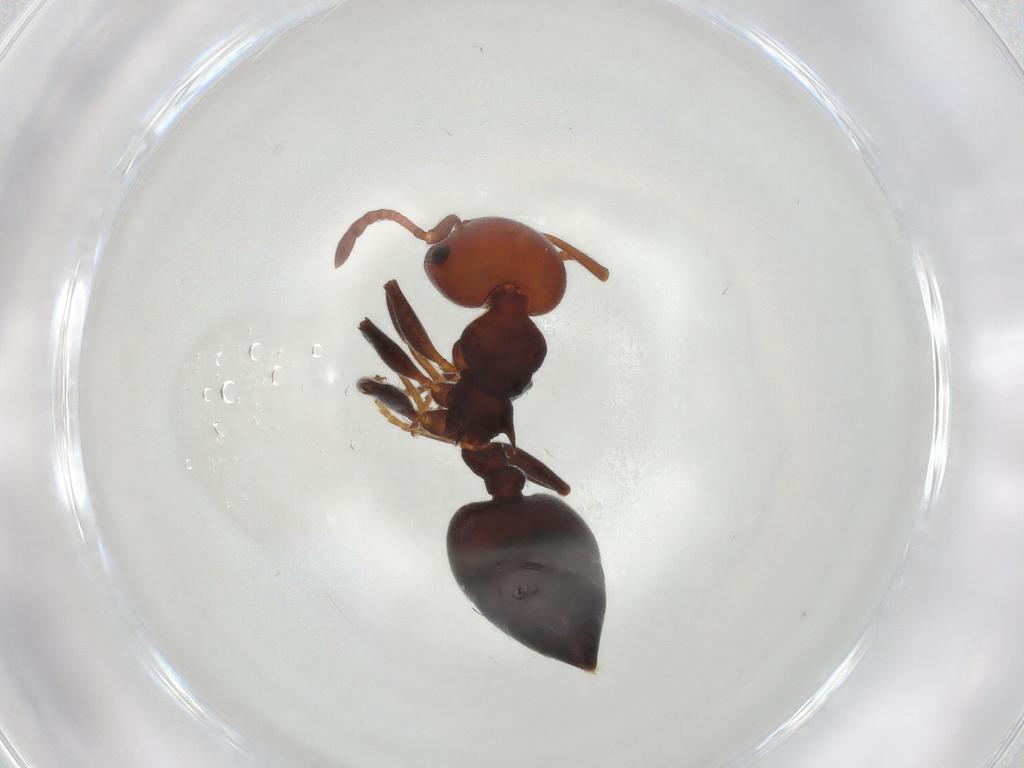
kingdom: Animalia
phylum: Arthropoda
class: Insecta
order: Hymenoptera
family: Formicidae
